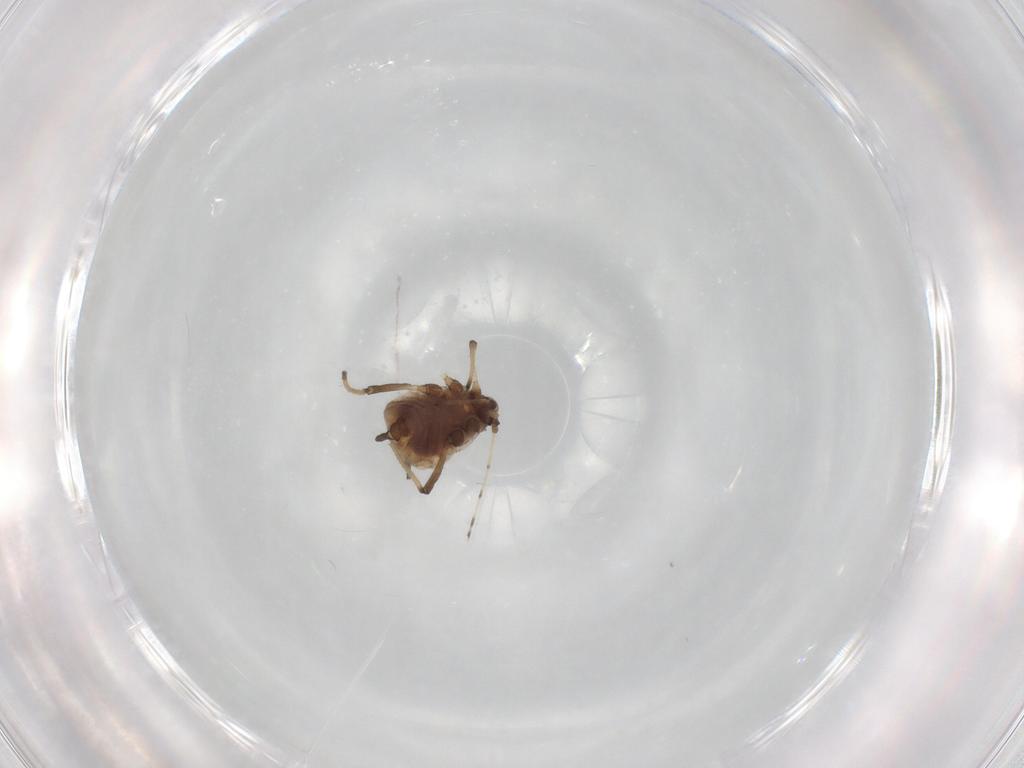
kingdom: Animalia
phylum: Arthropoda
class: Insecta
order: Hemiptera
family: Aphididae
